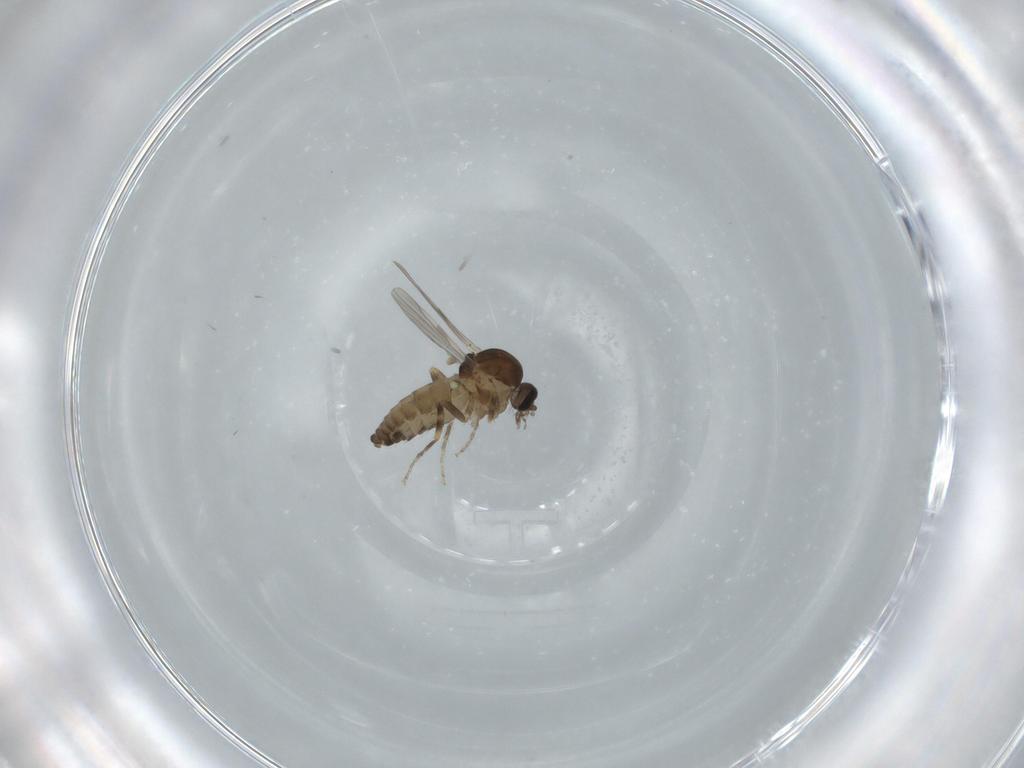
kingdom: Animalia
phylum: Arthropoda
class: Insecta
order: Diptera
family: Ceratopogonidae
